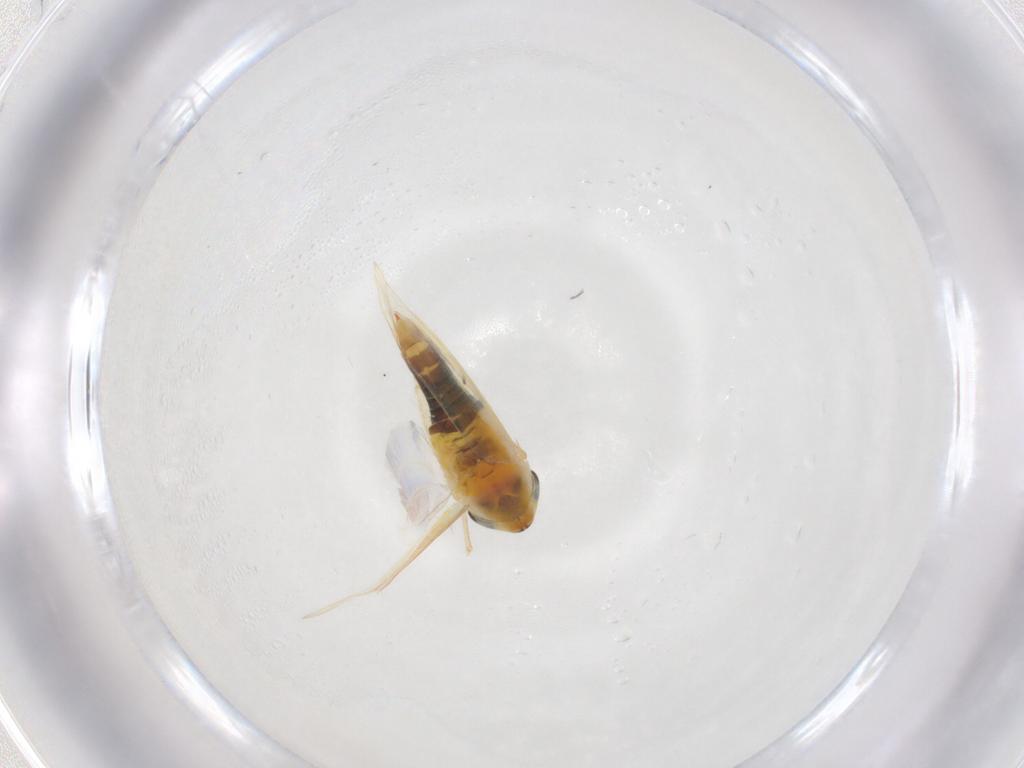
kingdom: Animalia
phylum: Arthropoda
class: Insecta
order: Hemiptera
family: Cicadellidae
